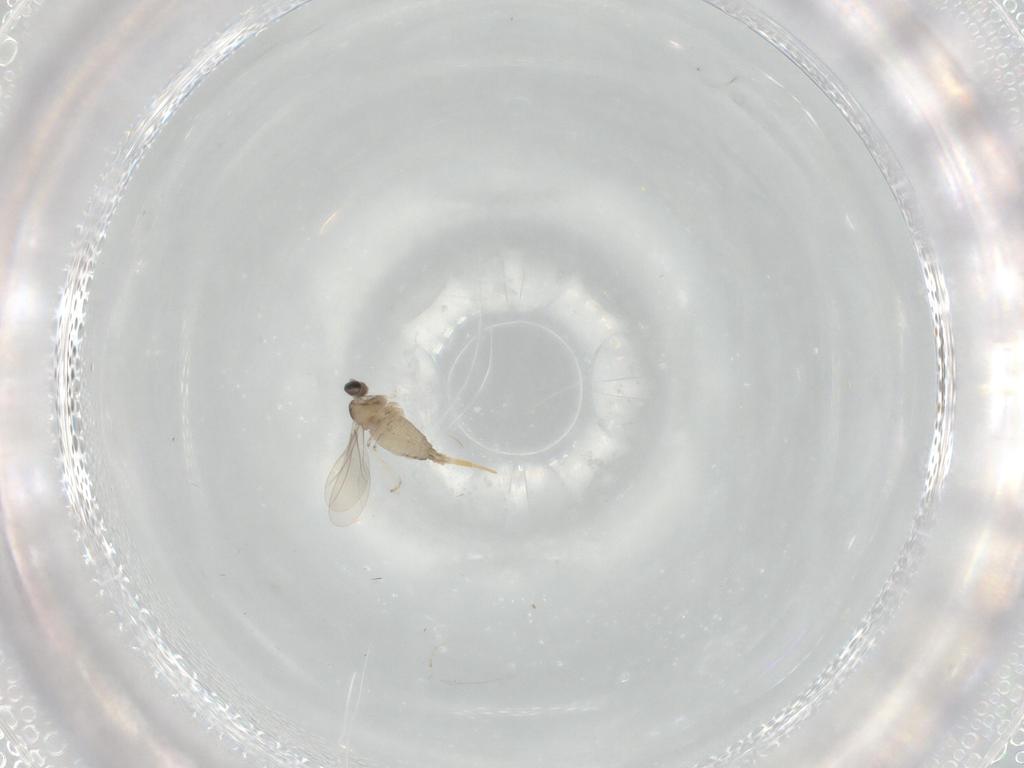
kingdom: Animalia
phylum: Arthropoda
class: Insecta
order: Diptera
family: Cecidomyiidae
